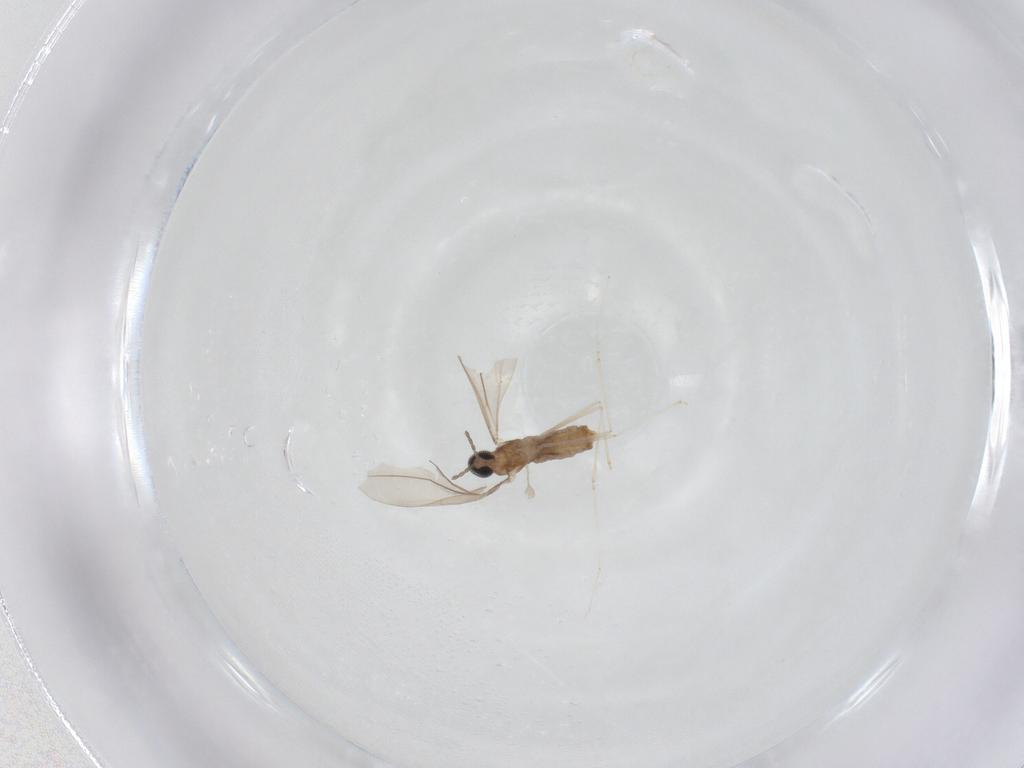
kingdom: Animalia
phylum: Arthropoda
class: Insecta
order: Diptera
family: Cecidomyiidae
